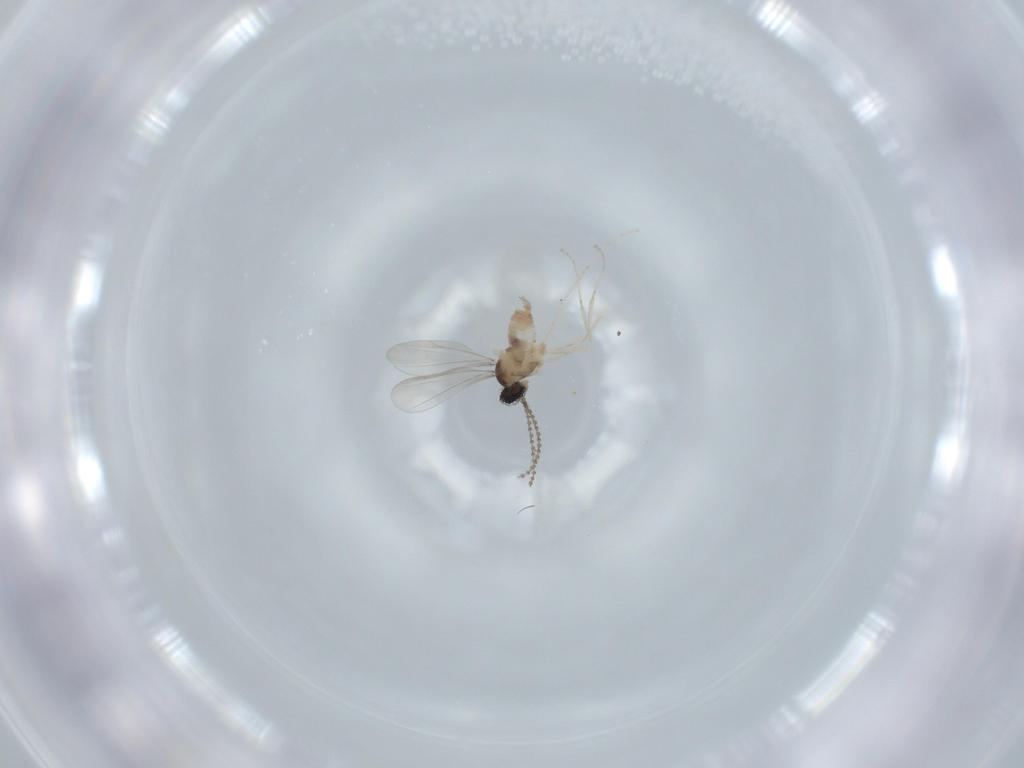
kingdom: Animalia
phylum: Arthropoda
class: Insecta
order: Diptera
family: Cecidomyiidae
